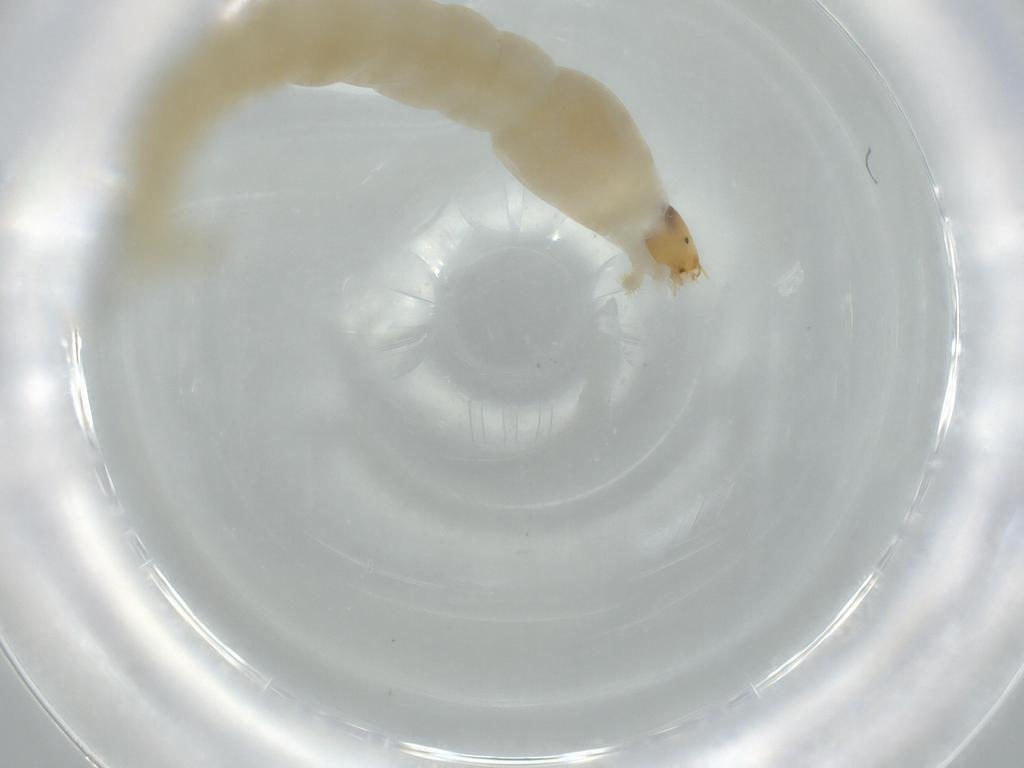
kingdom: Animalia
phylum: Arthropoda
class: Insecta
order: Diptera
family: Chironomidae
